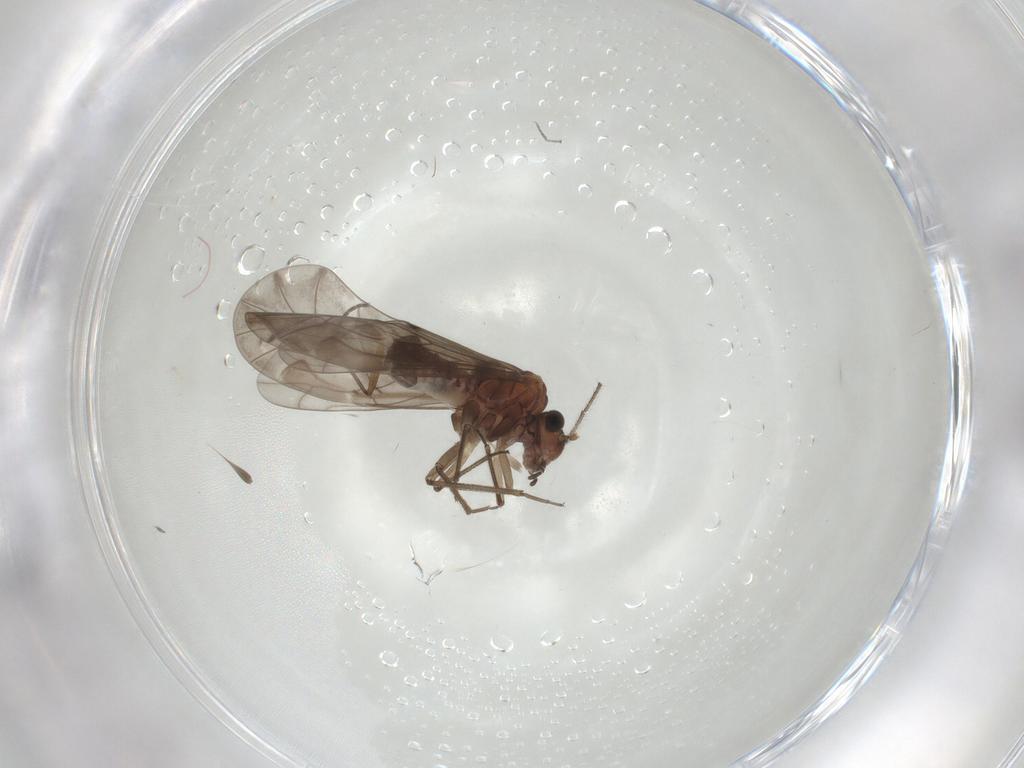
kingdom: Animalia
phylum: Arthropoda
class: Insecta
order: Psocodea
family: Peripsocidae
